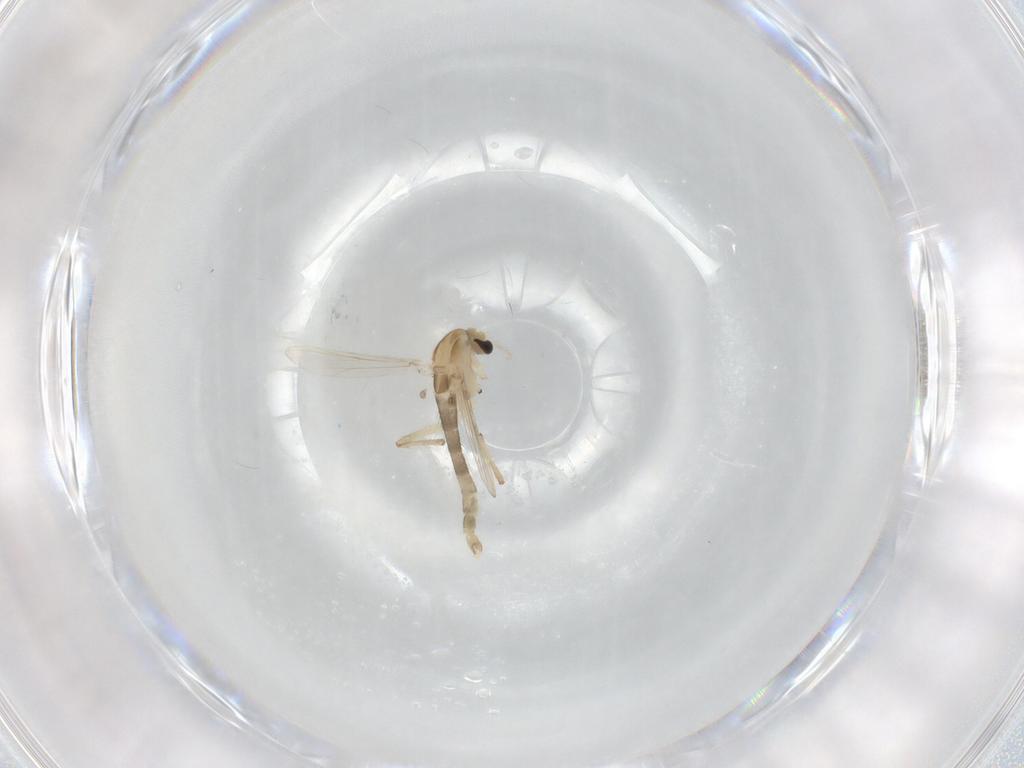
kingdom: Animalia
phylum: Arthropoda
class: Insecta
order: Diptera
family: Chironomidae
